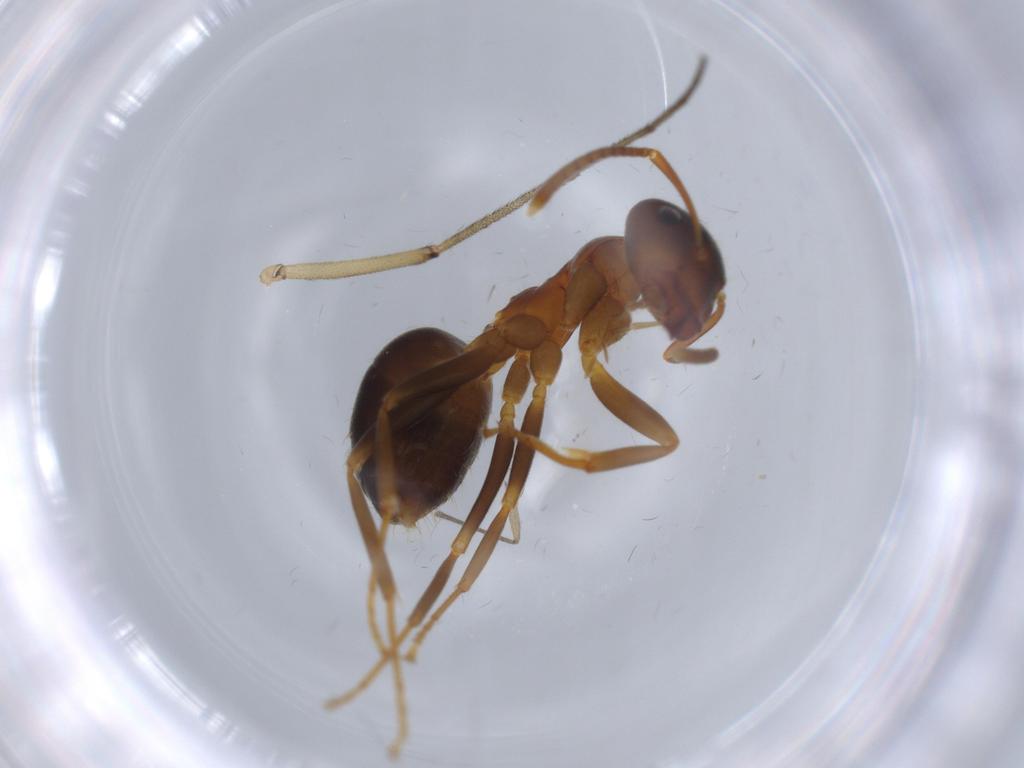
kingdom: Animalia
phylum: Arthropoda
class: Insecta
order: Hymenoptera
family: Formicidae
